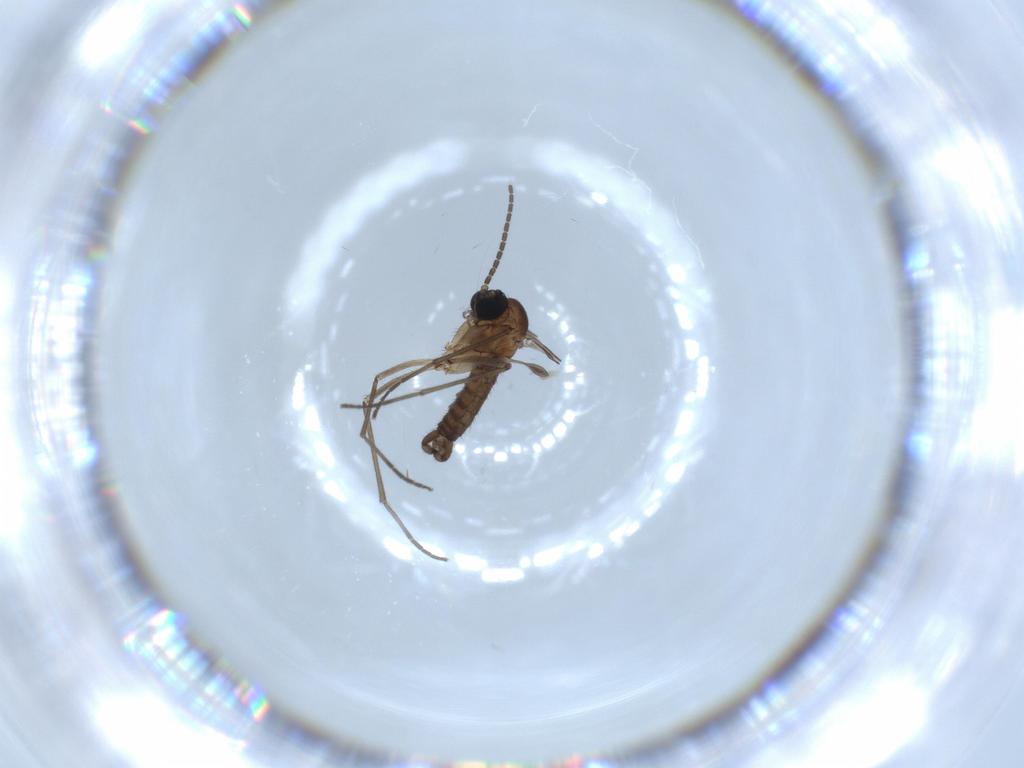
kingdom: Animalia
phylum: Arthropoda
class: Insecta
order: Diptera
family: Sciaridae
